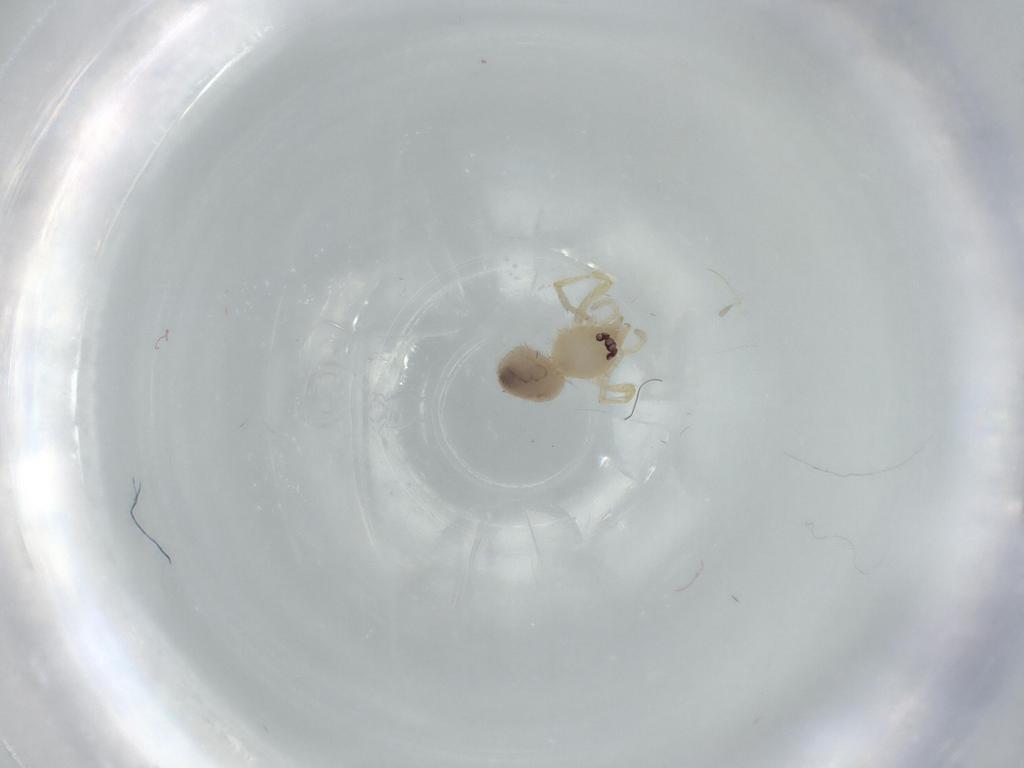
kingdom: Animalia
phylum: Arthropoda
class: Arachnida
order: Araneae
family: Oonopidae
